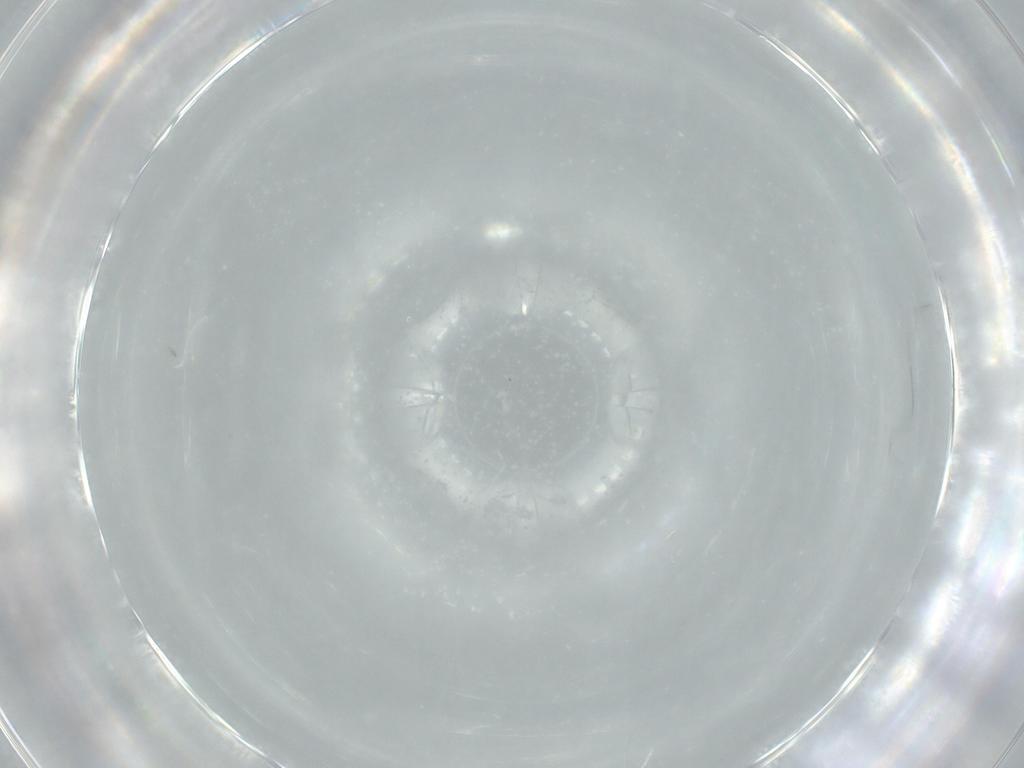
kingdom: Animalia
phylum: Arthropoda
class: Insecta
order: Diptera
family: Phoridae
